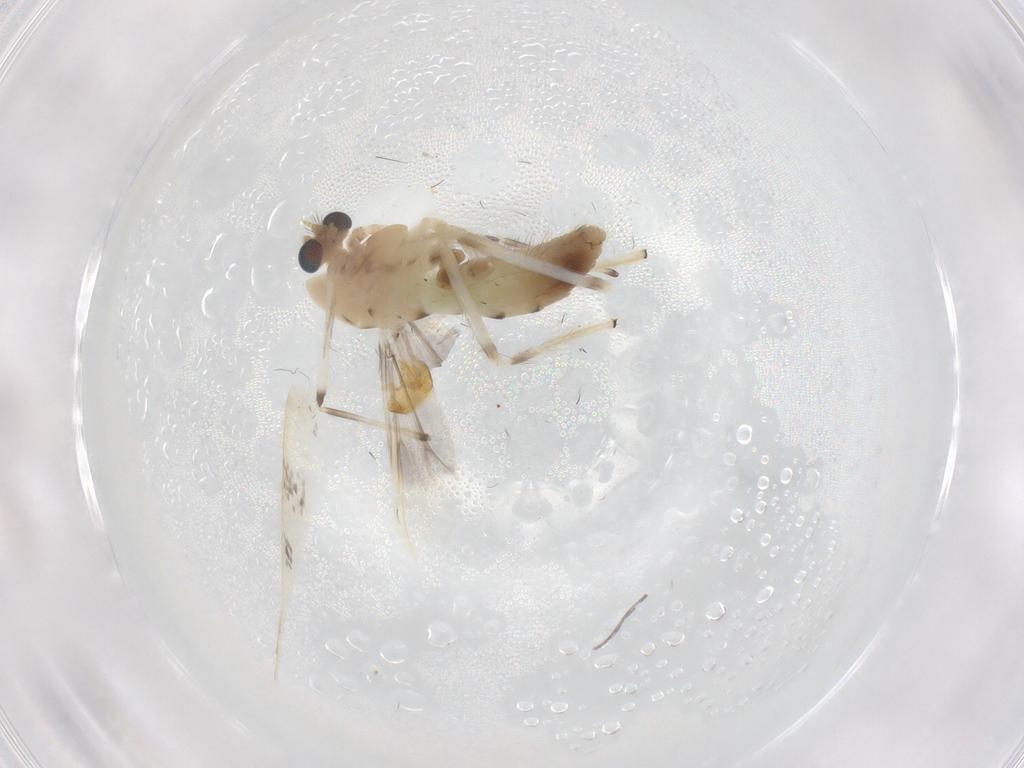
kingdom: Animalia
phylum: Arthropoda
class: Insecta
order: Diptera
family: Chironomidae
